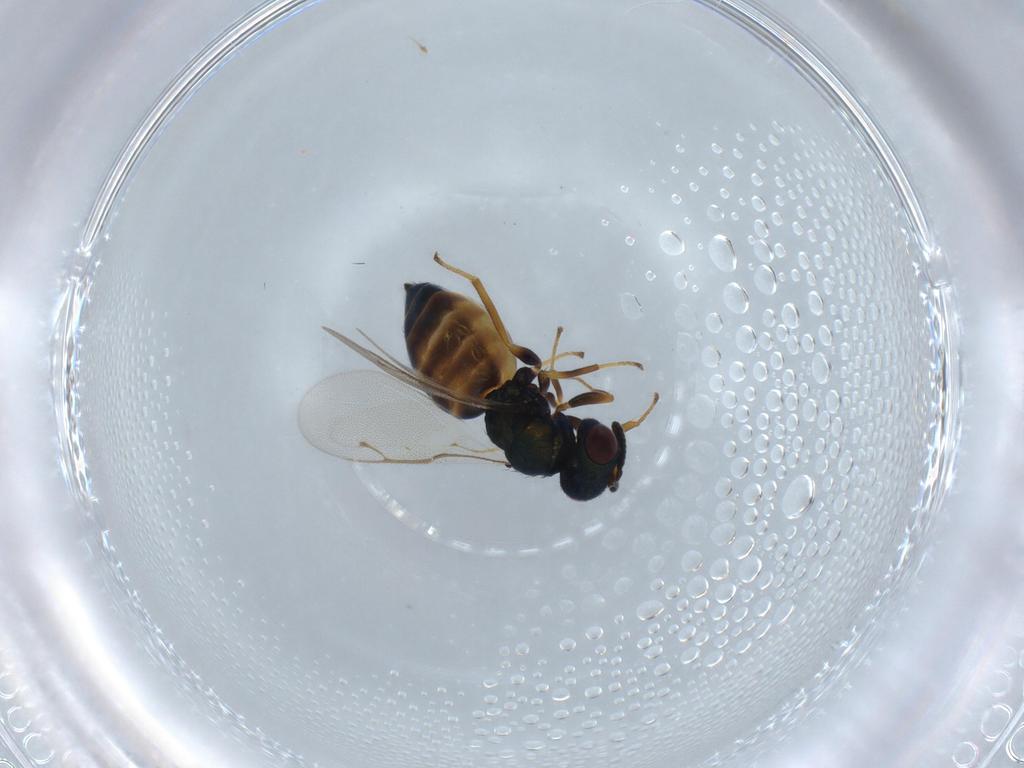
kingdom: Animalia
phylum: Arthropoda
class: Insecta
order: Hymenoptera
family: Pteromalidae
